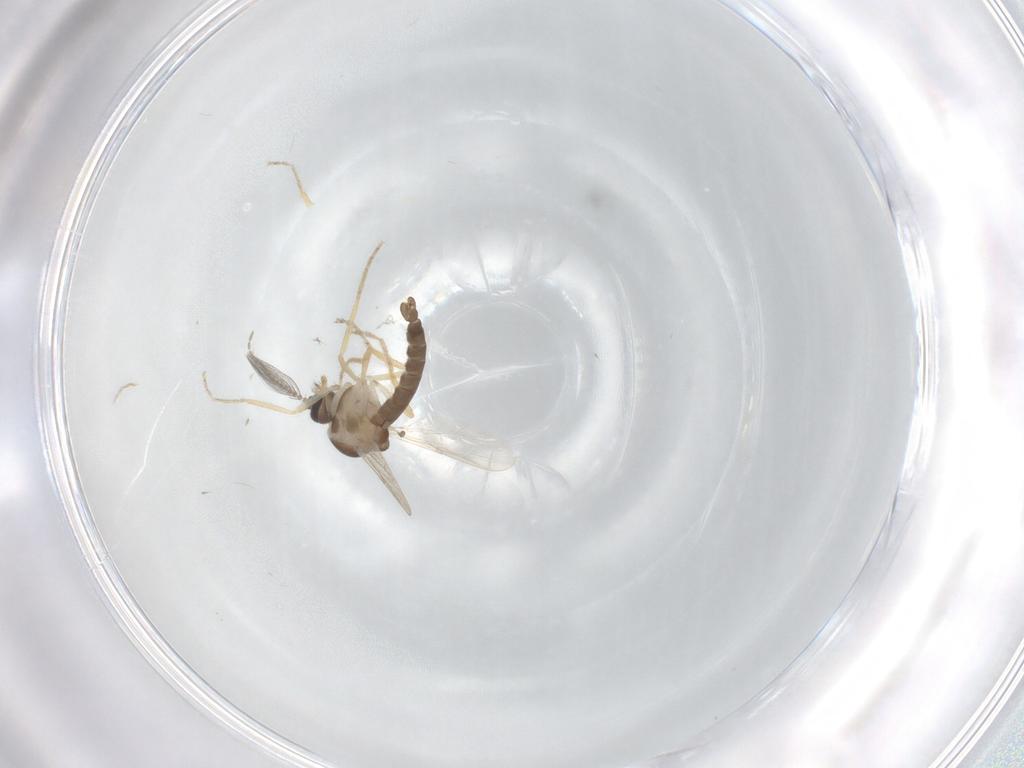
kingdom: Animalia
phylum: Arthropoda
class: Insecta
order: Diptera
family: Ceratopogonidae
